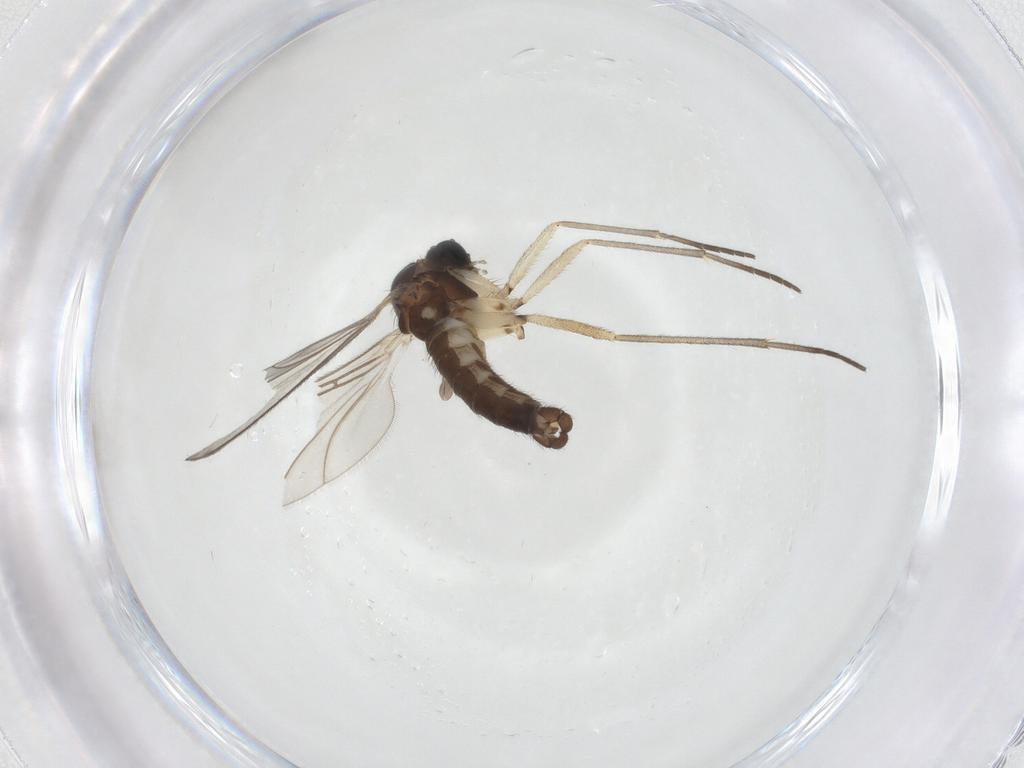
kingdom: Animalia
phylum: Arthropoda
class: Insecta
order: Diptera
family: Sciaridae
